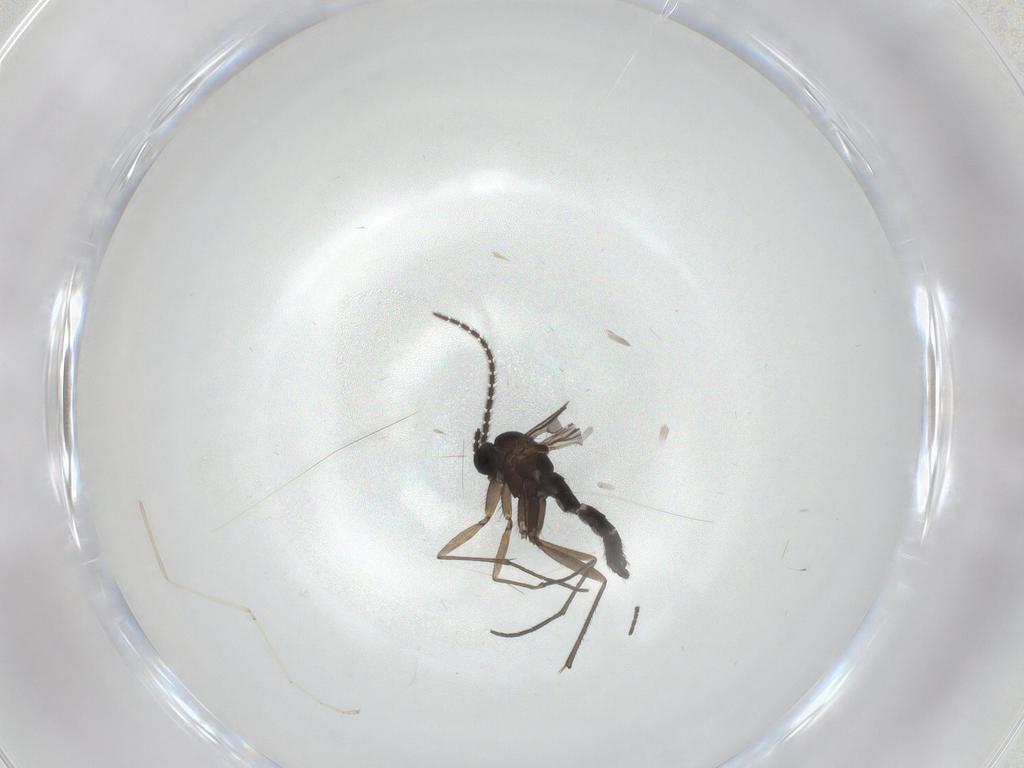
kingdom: Animalia
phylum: Arthropoda
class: Insecta
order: Diptera
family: Sciaridae
